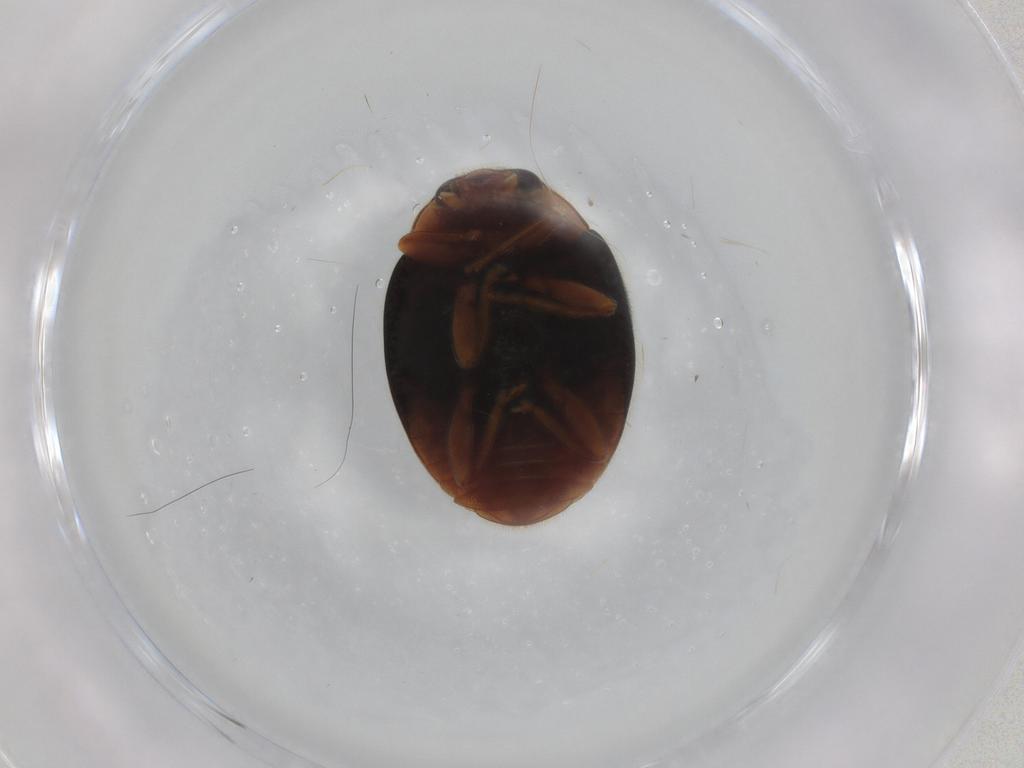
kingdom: Animalia
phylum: Arthropoda
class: Insecta
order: Coleoptera
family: Coccinellidae
